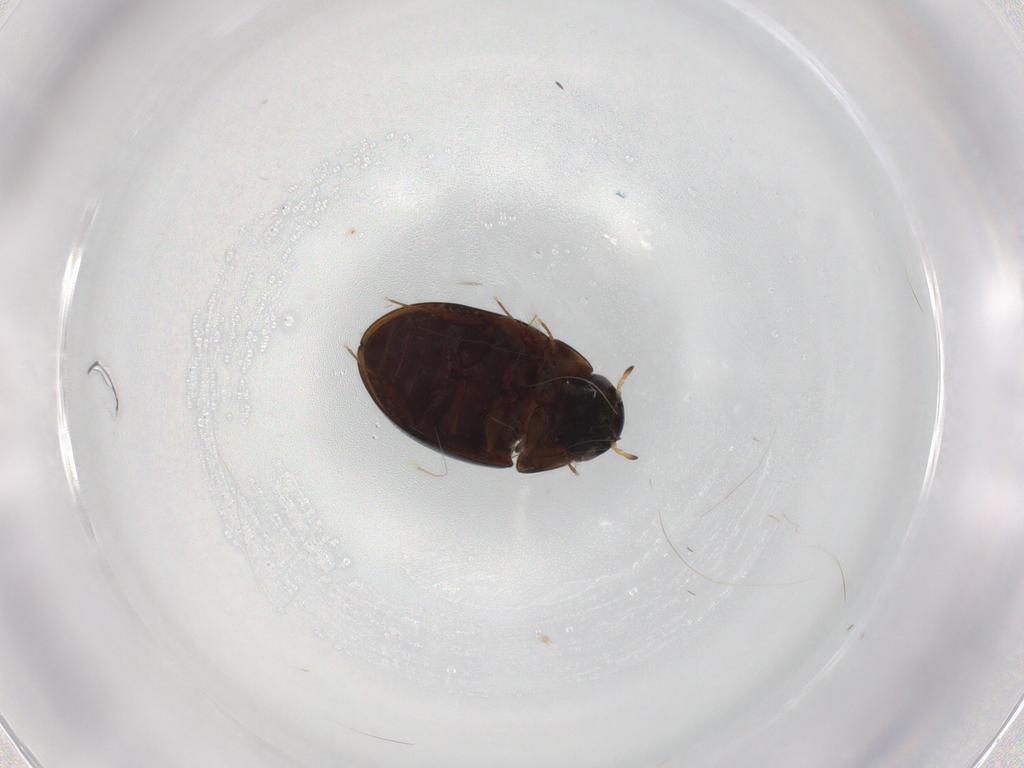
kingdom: Animalia
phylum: Arthropoda
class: Insecta
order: Coleoptera
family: Hydrophilidae
